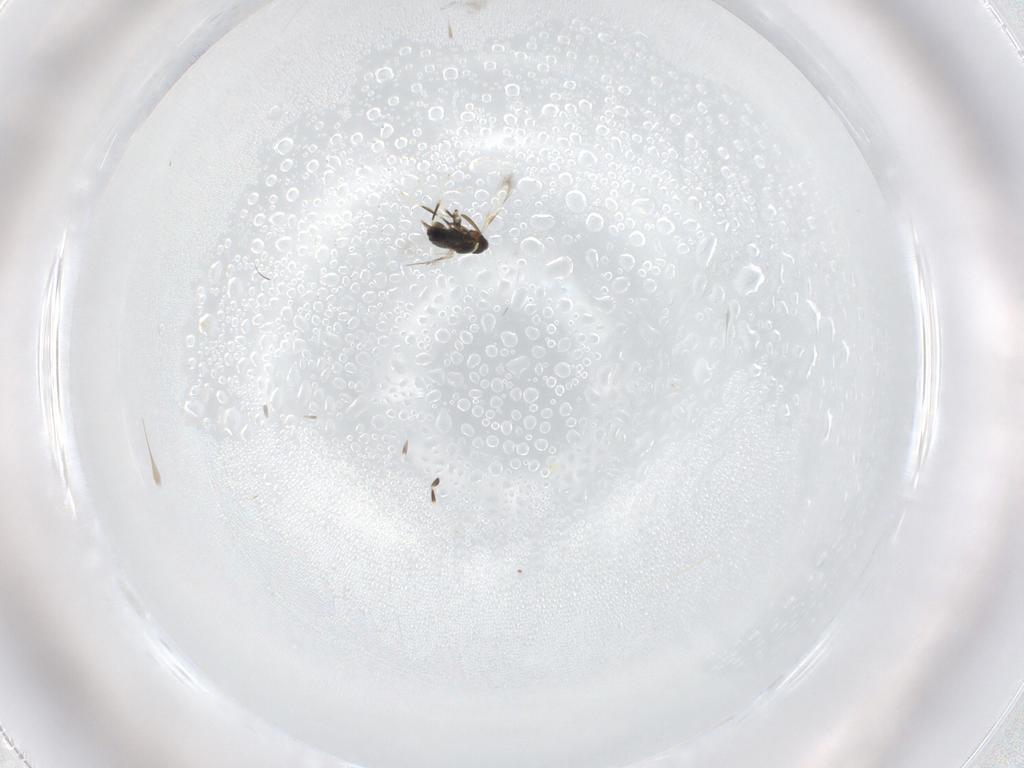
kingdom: Animalia
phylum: Arthropoda
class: Insecta
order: Hymenoptera
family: Signiphoridae
